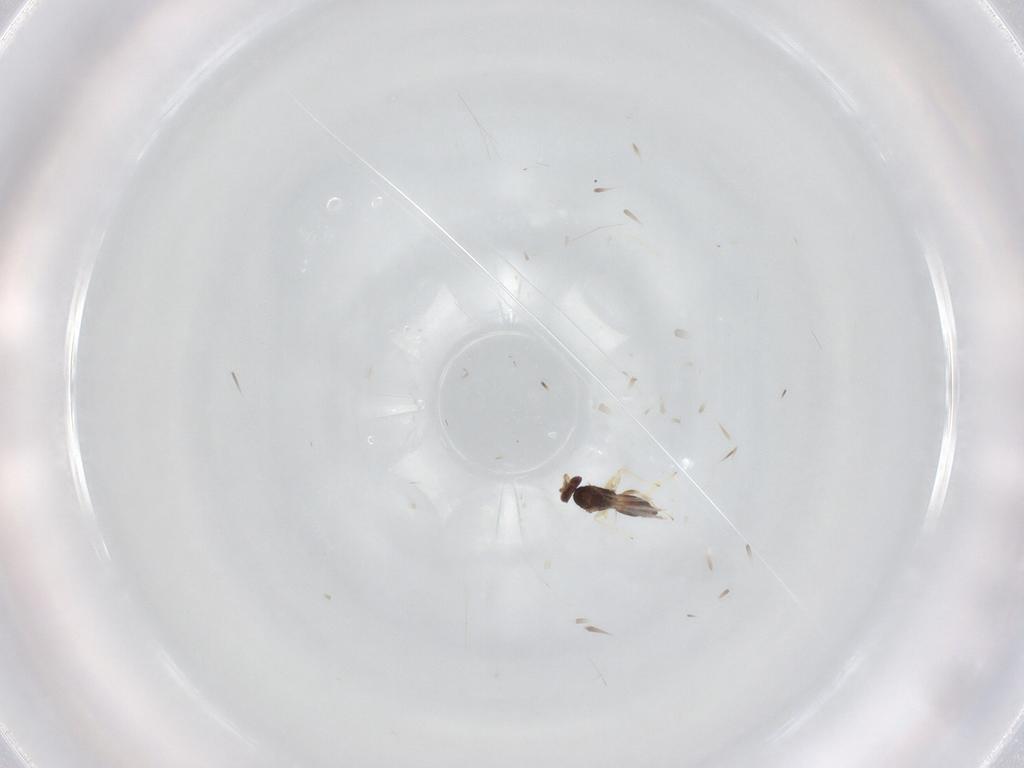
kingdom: Animalia
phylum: Arthropoda
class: Insecta
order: Hymenoptera
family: Eulophidae
